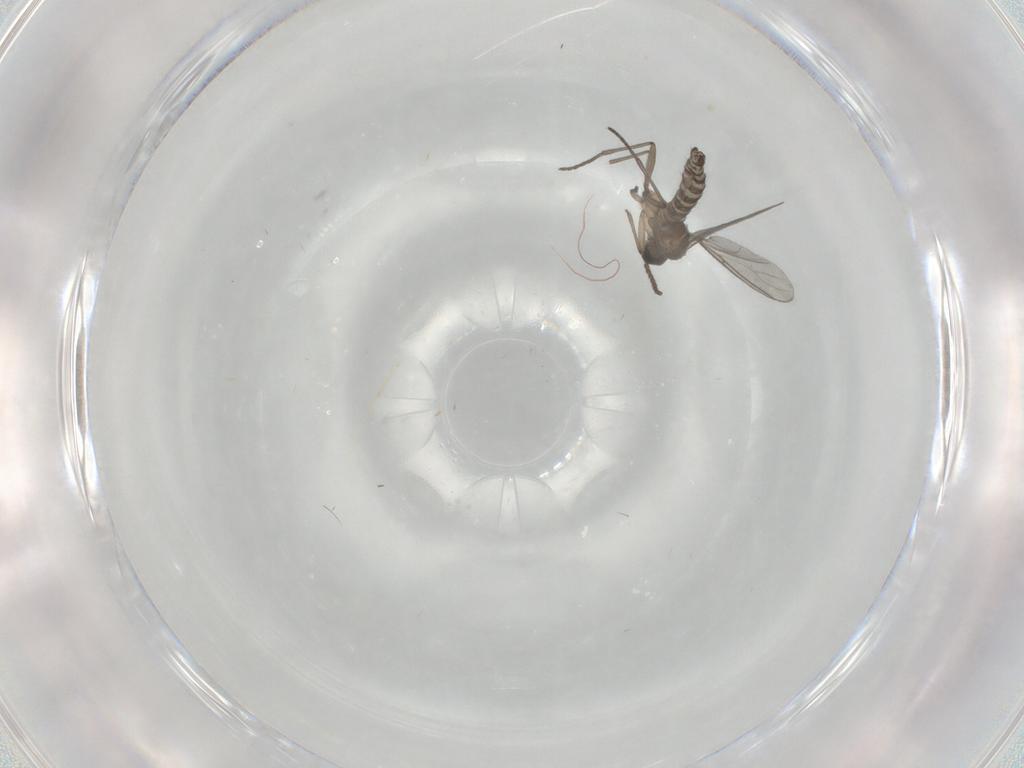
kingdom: Animalia
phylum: Arthropoda
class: Insecta
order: Diptera
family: Cecidomyiidae
